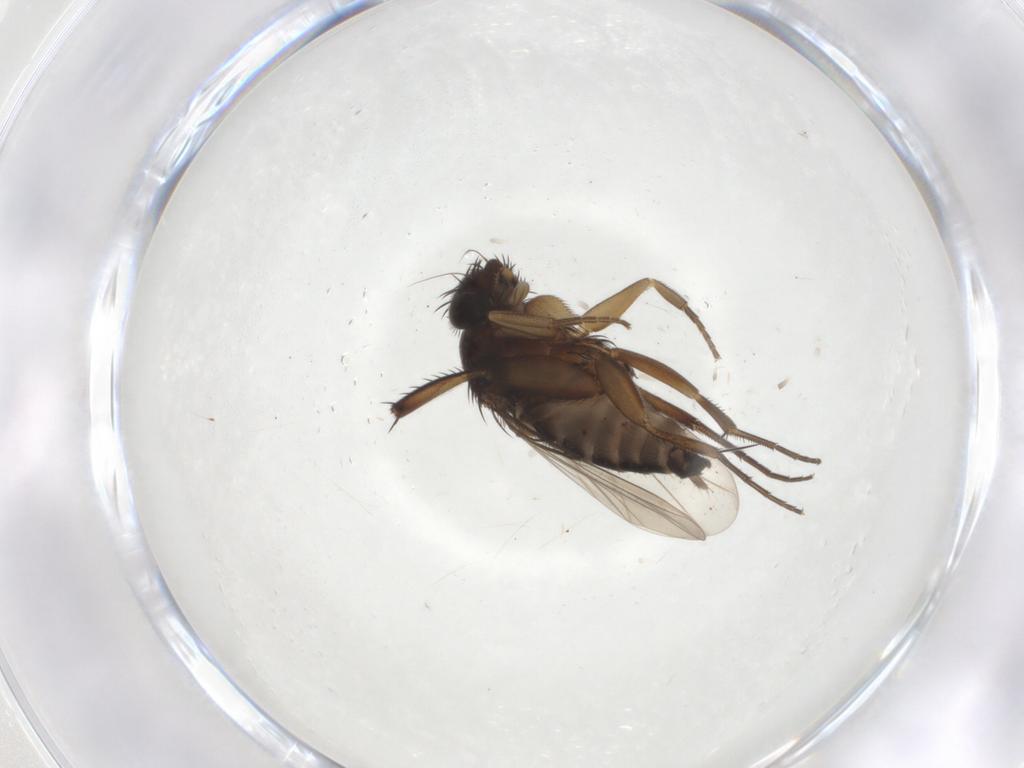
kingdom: Animalia
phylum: Arthropoda
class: Insecta
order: Diptera
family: Phoridae
